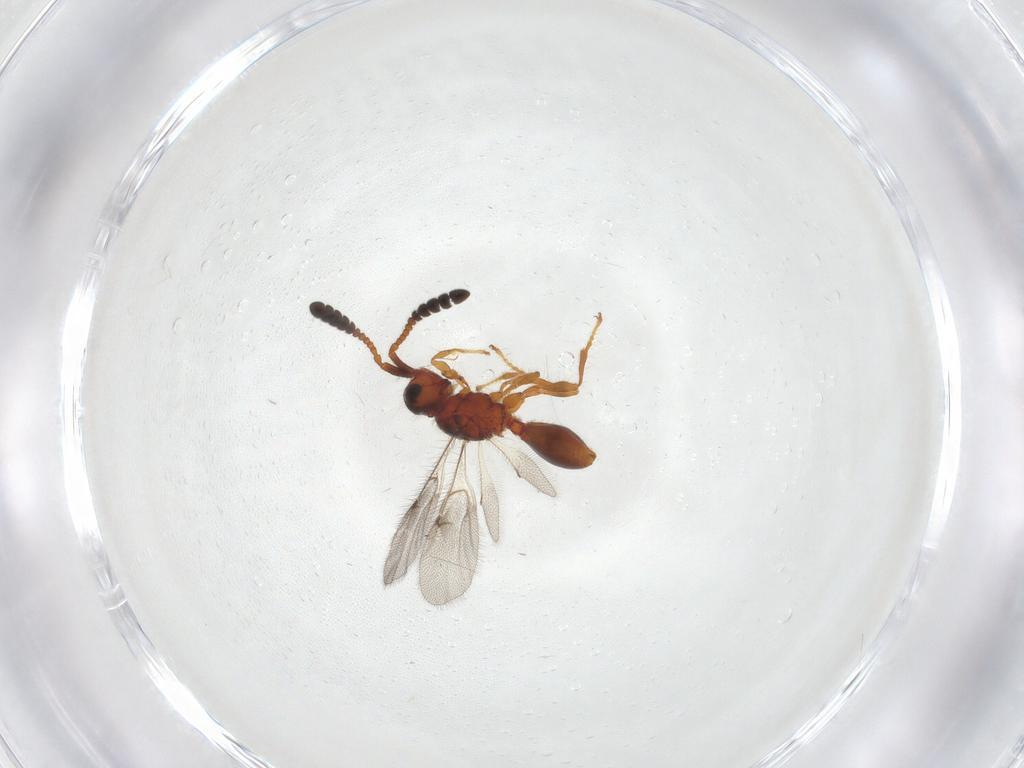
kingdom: Animalia
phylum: Arthropoda
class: Insecta
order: Hymenoptera
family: Diapriidae
